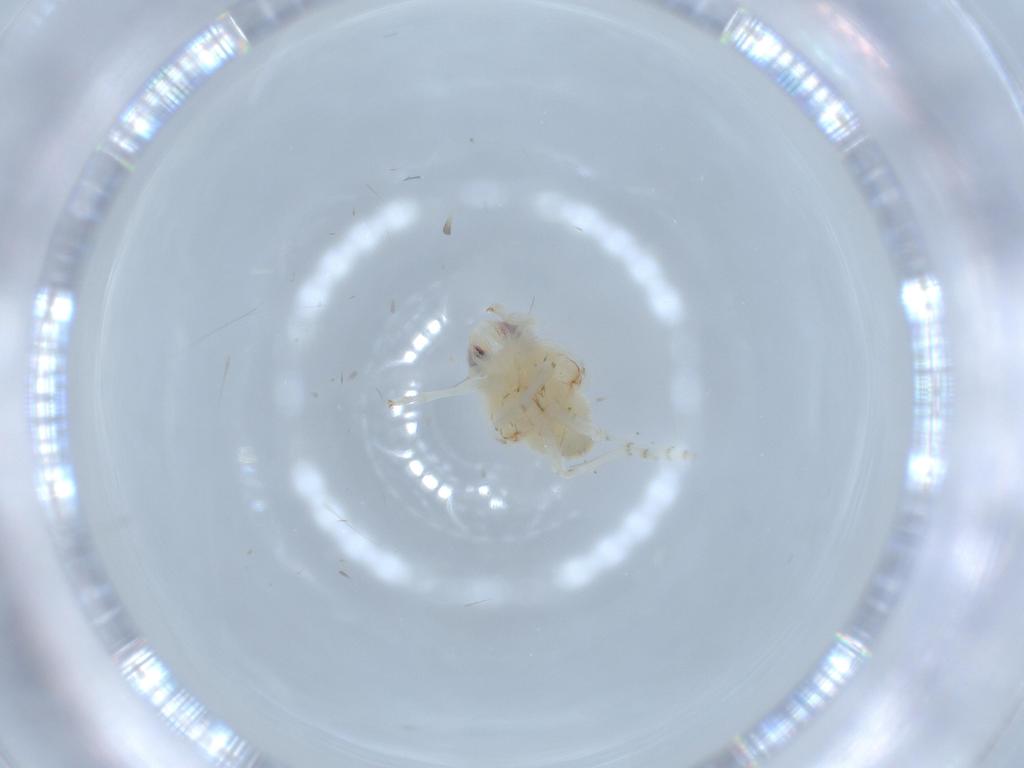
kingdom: Animalia
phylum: Arthropoda
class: Insecta
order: Hemiptera
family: Nogodinidae
